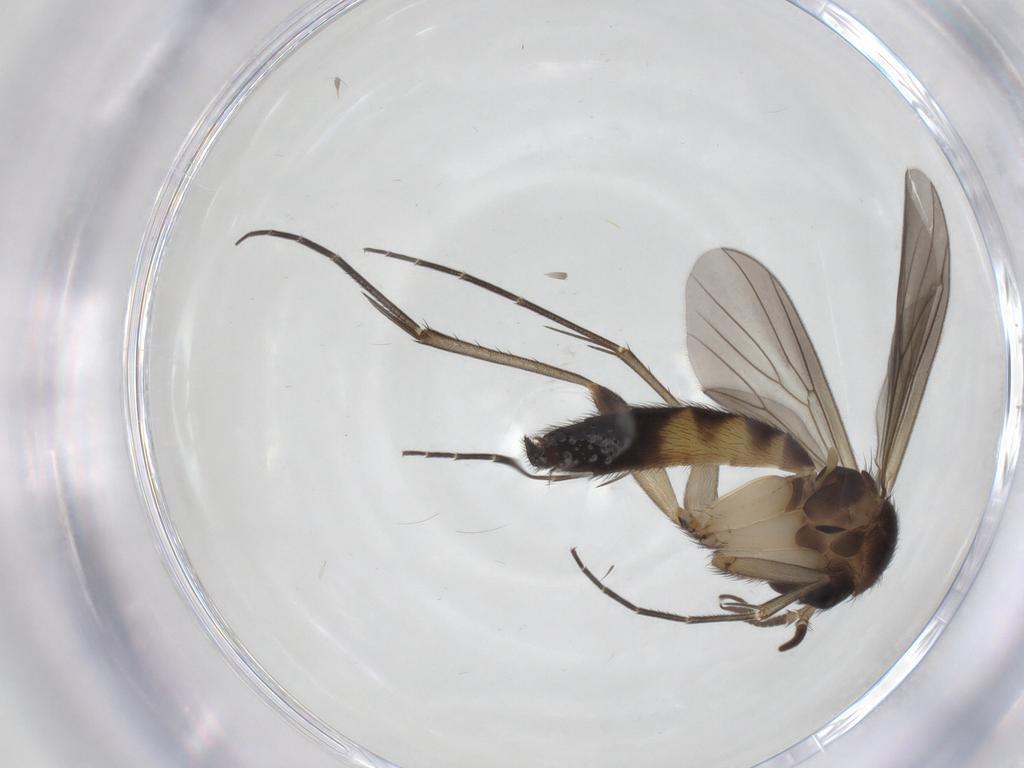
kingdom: Animalia
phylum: Arthropoda
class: Insecta
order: Diptera
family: Mycetophilidae
